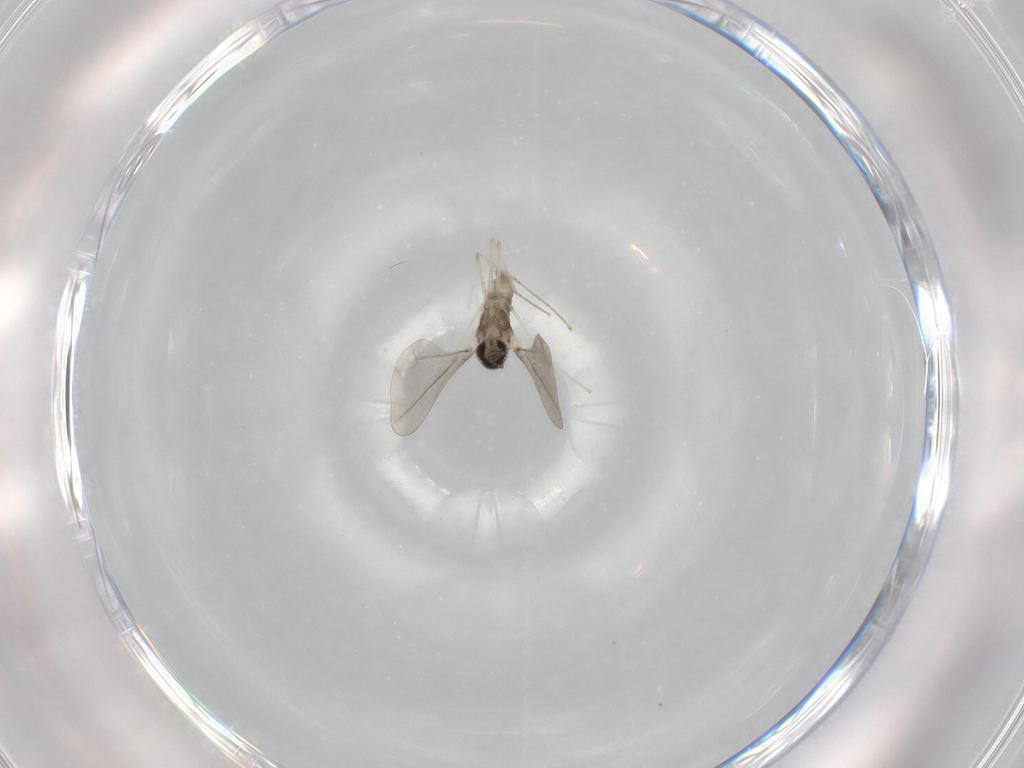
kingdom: Animalia
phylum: Arthropoda
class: Insecta
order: Diptera
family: Cecidomyiidae
